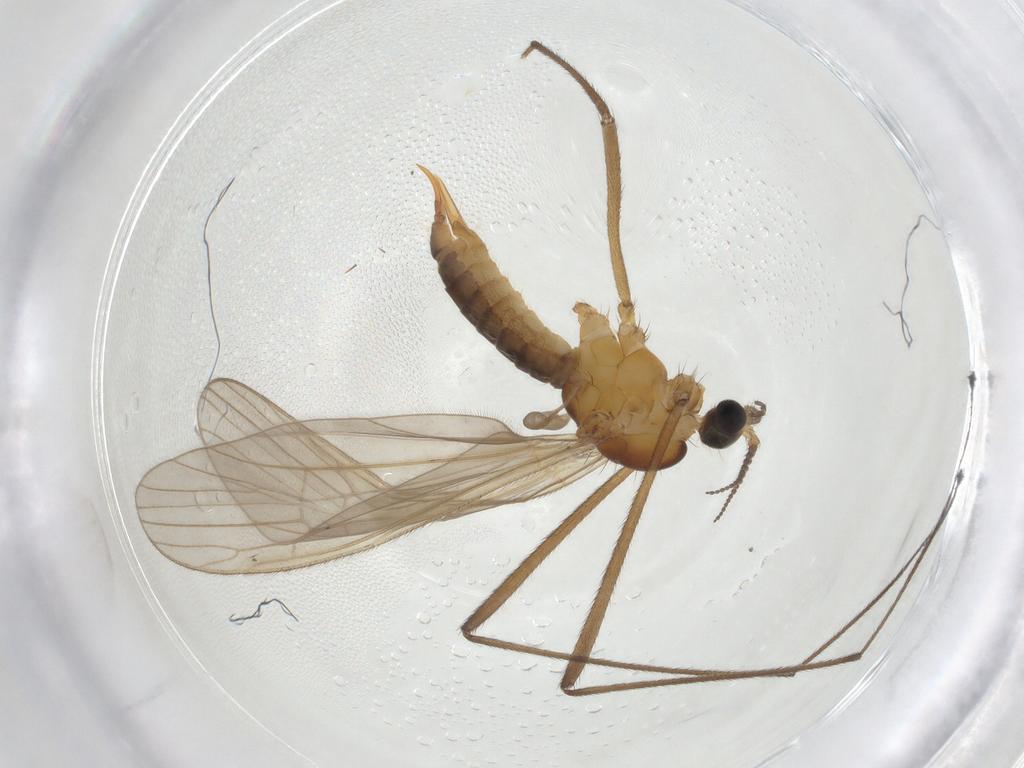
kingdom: Animalia
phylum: Arthropoda
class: Insecta
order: Diptera
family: Limoniidae
